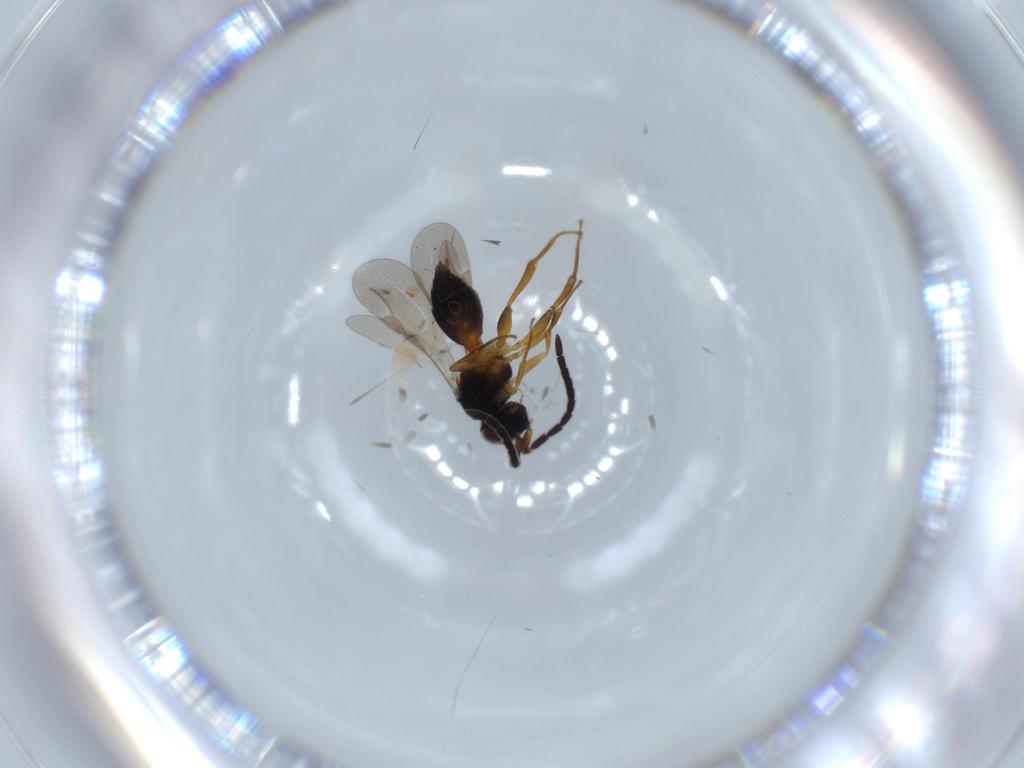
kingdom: Animalia
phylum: Arthropoda
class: Insecta
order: Hymenoptera
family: Megaspilidae
